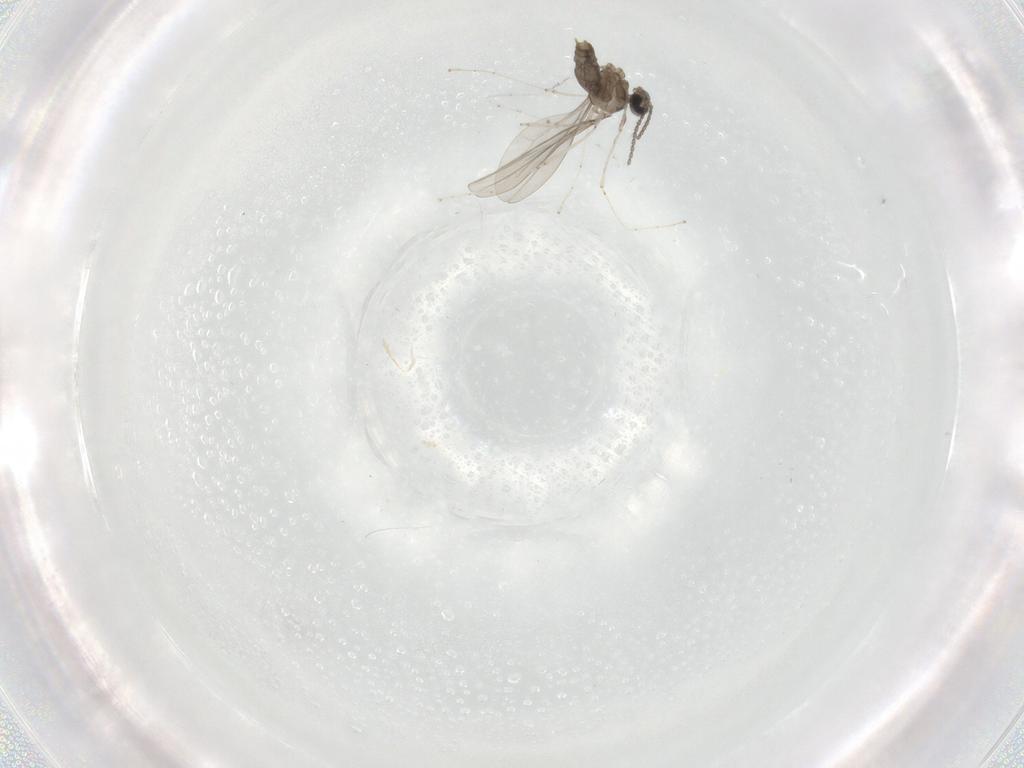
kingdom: Animalia
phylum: Arthropoda
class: Insecta
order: Diptera
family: Cecidomyiidae
